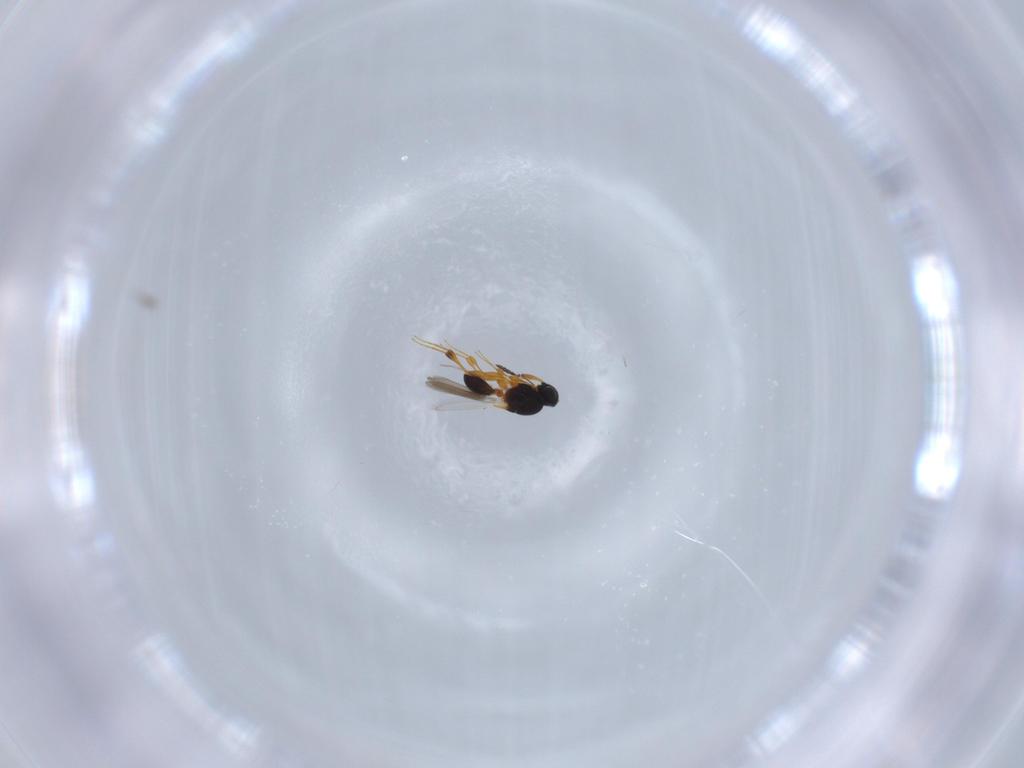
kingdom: Animalia
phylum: Arthropoda
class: Insecta
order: Hymenoptera
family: Platygastridae
